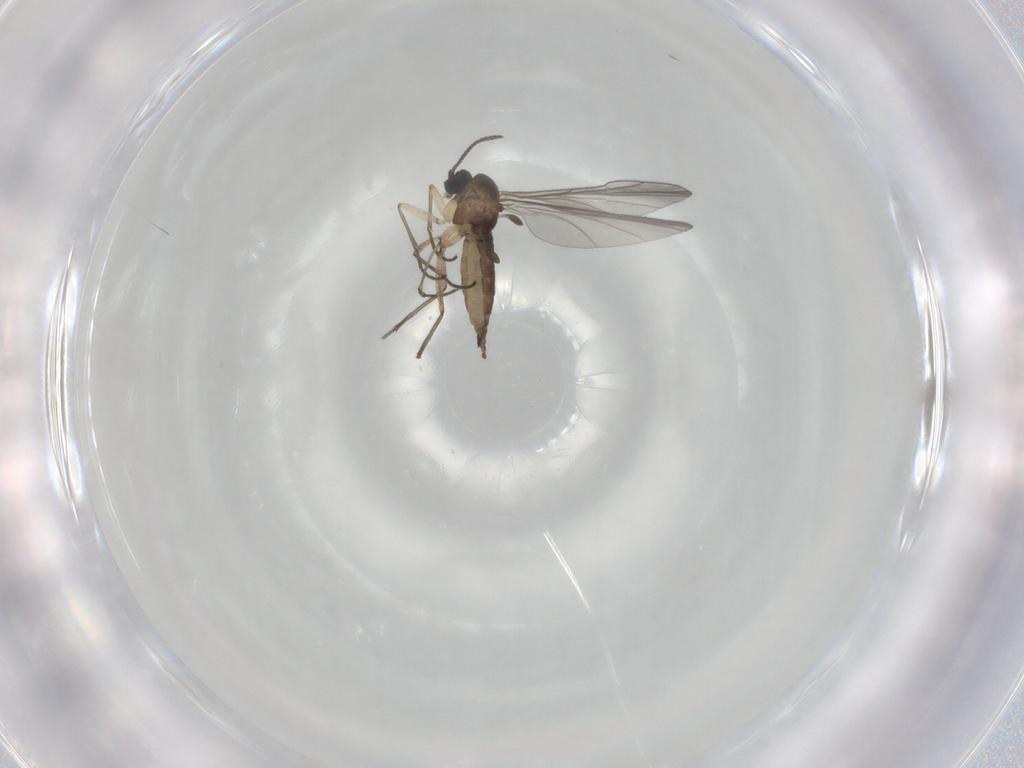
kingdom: Animalia
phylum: Arthropoda
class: Insecta
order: Diptera
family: Sciaridae
